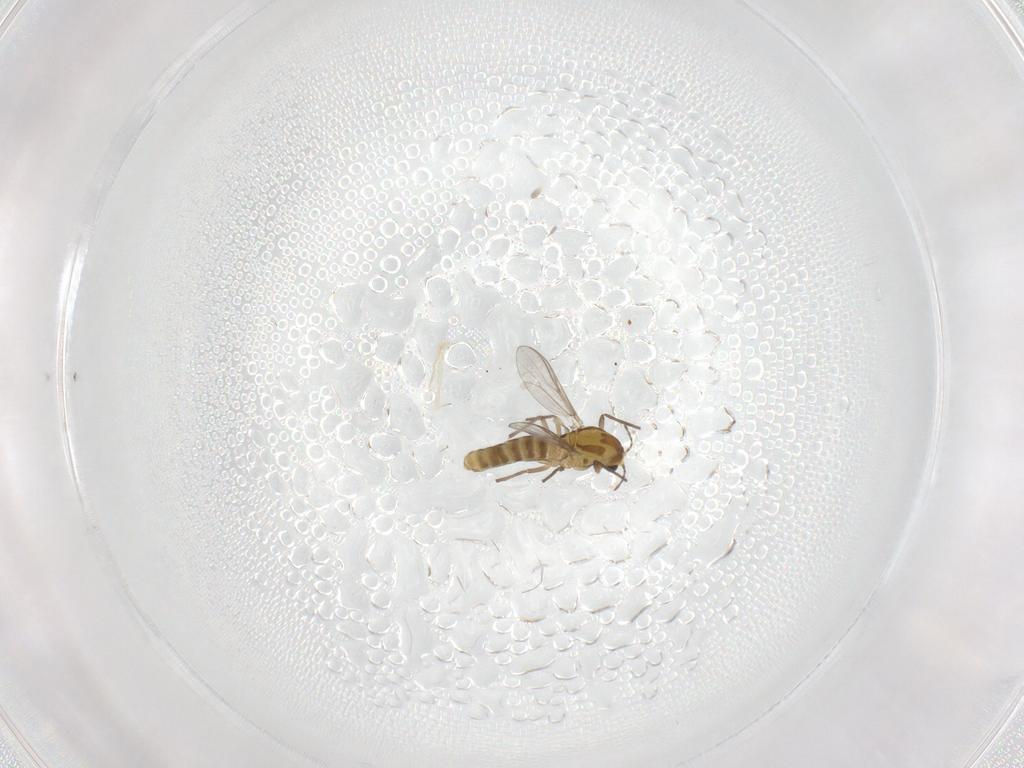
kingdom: Animalia
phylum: Arthropoda
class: Insecta
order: Diptera
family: Chironomidae
